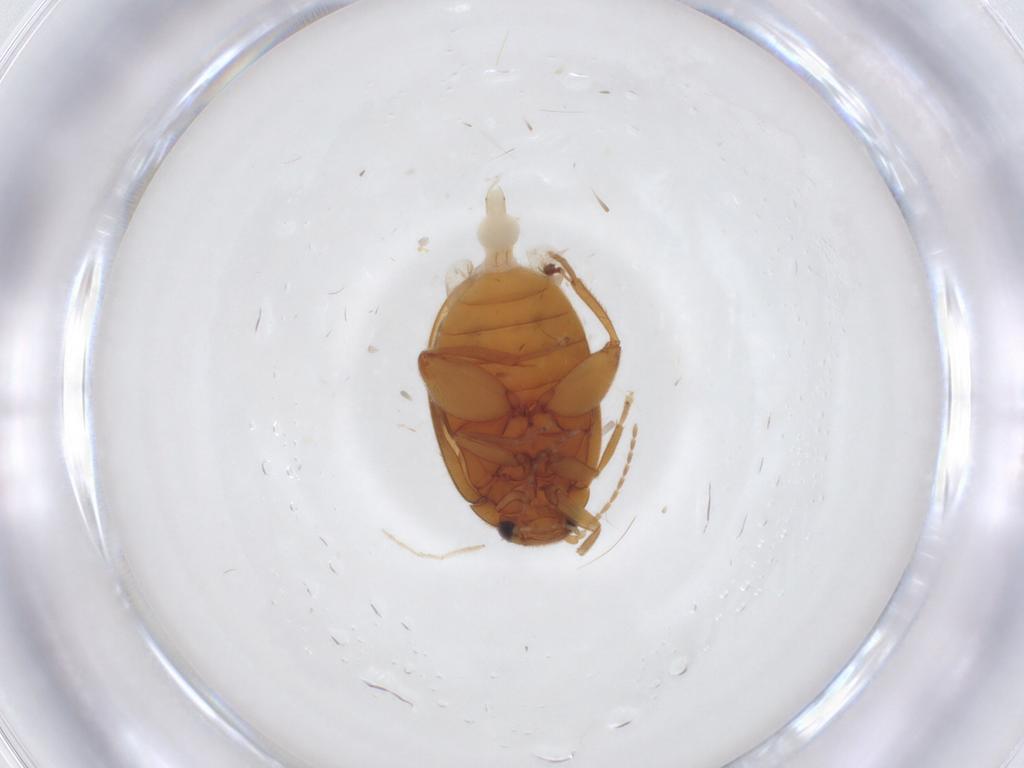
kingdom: Animalia
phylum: Arthropoda
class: Insecta
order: Coleoptera
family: Scirtidae
